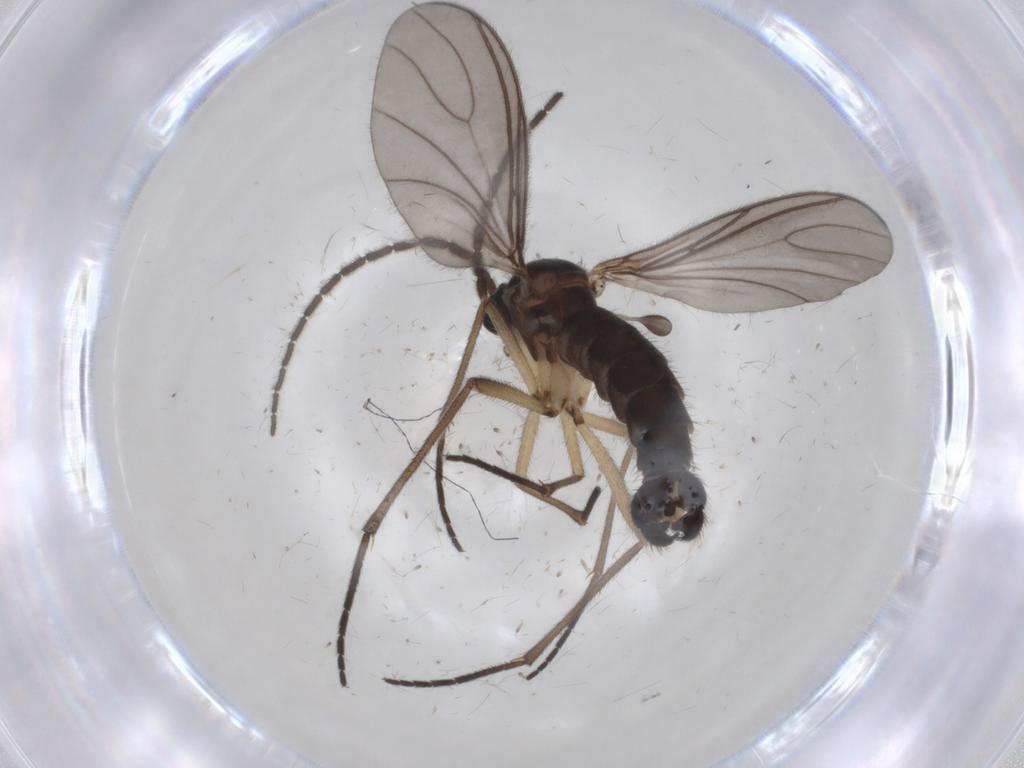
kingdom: Animalia
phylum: Arthropoda
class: Insecta
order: Diptera
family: Sciaridae
